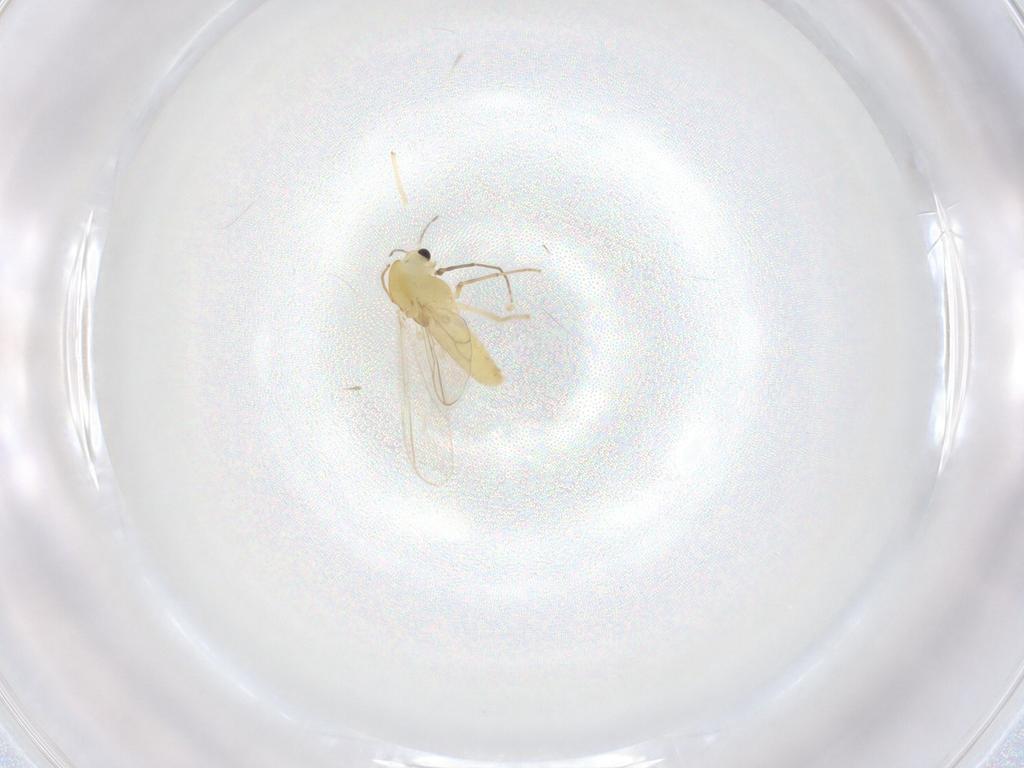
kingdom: Animalia
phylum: Arthropoda
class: Insecta
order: Diptera
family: Chironomidae
